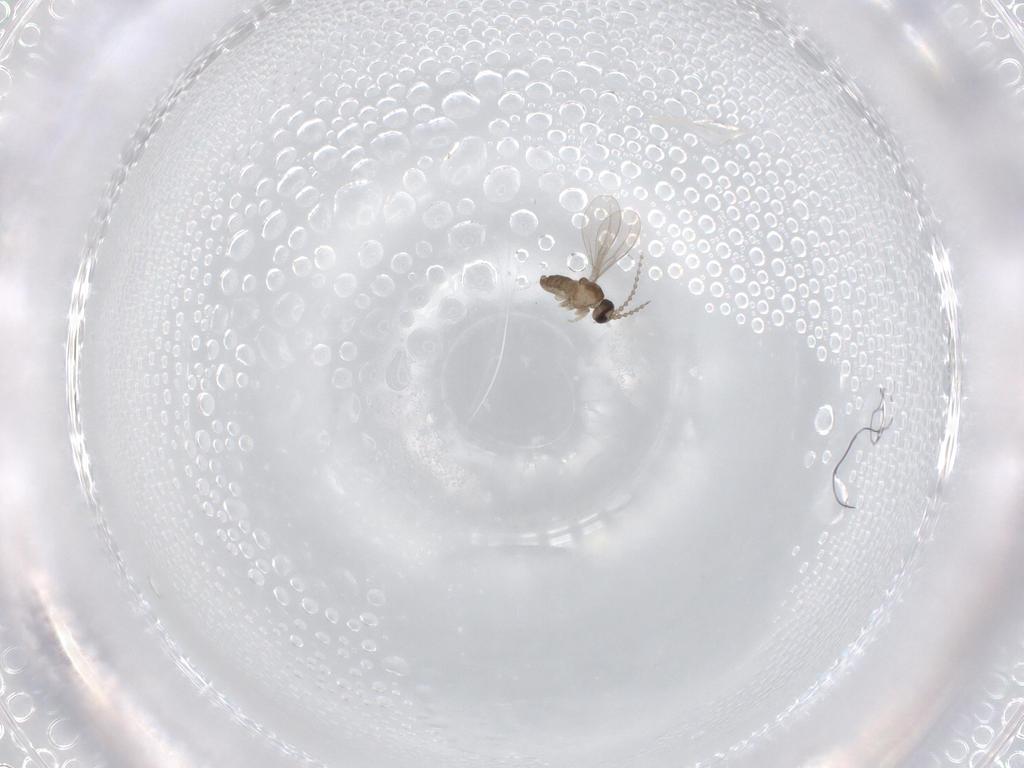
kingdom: Animalia
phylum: Arthropoda
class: Insecta
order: Diptera
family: Cecidomyiidae
